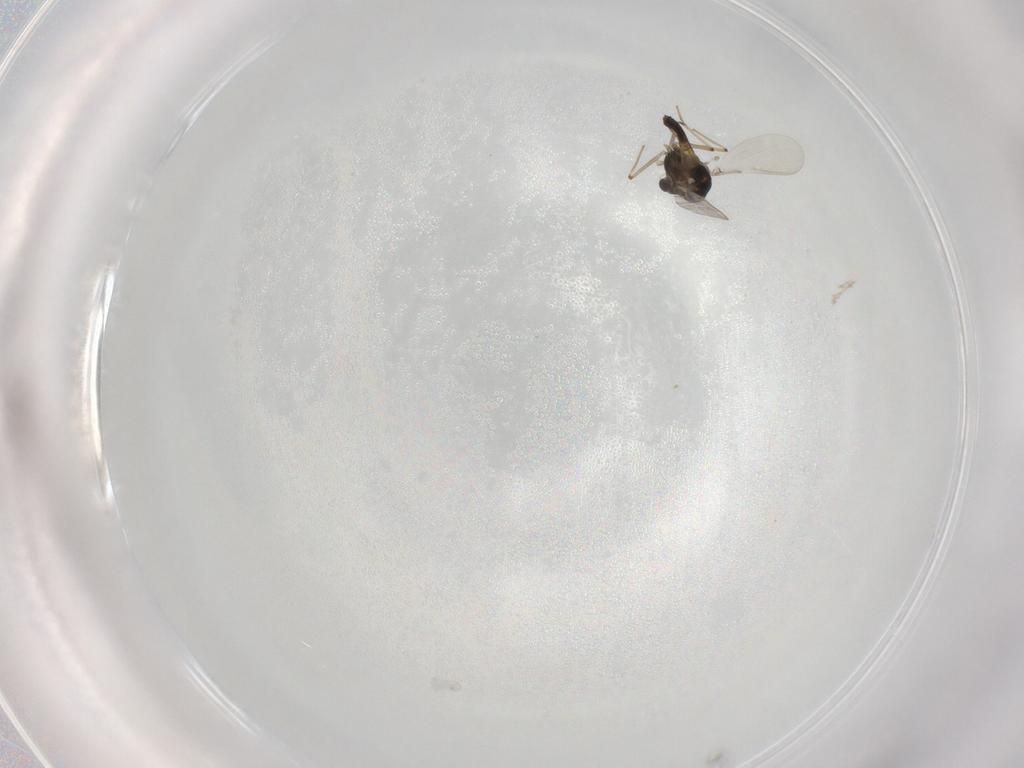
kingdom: Animalia
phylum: Arthropoda
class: Insecta
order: Diptera
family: Chironomidae
